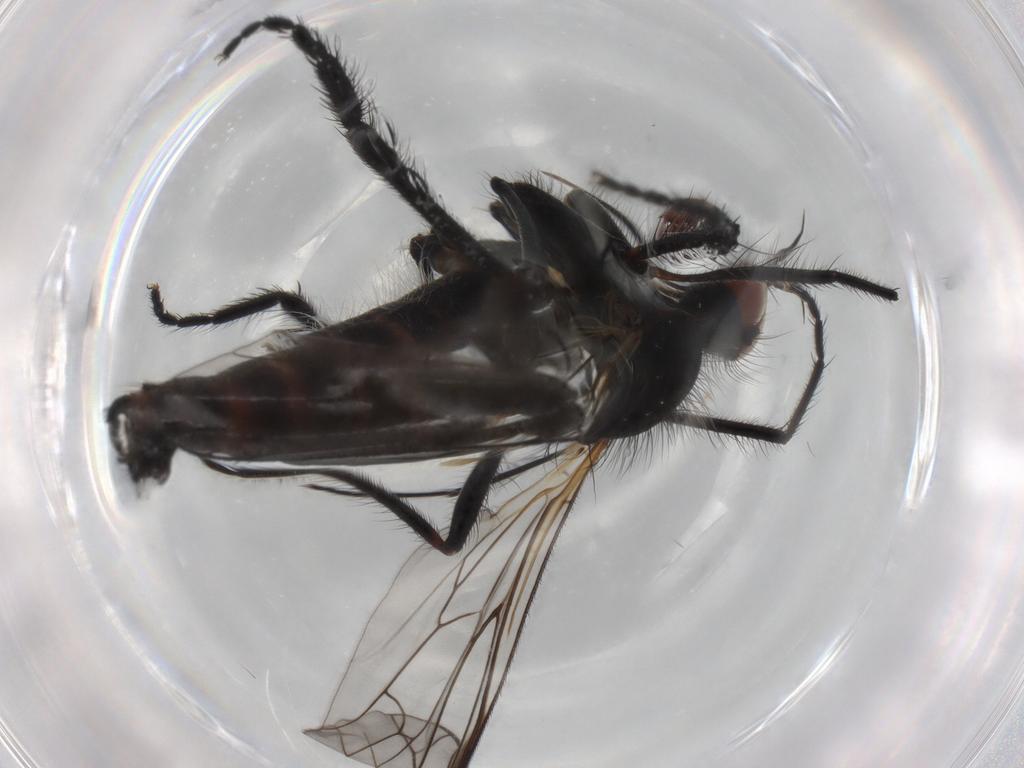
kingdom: Animalia
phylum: Arthropoda
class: Insecta
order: Diptera
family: Empididae
